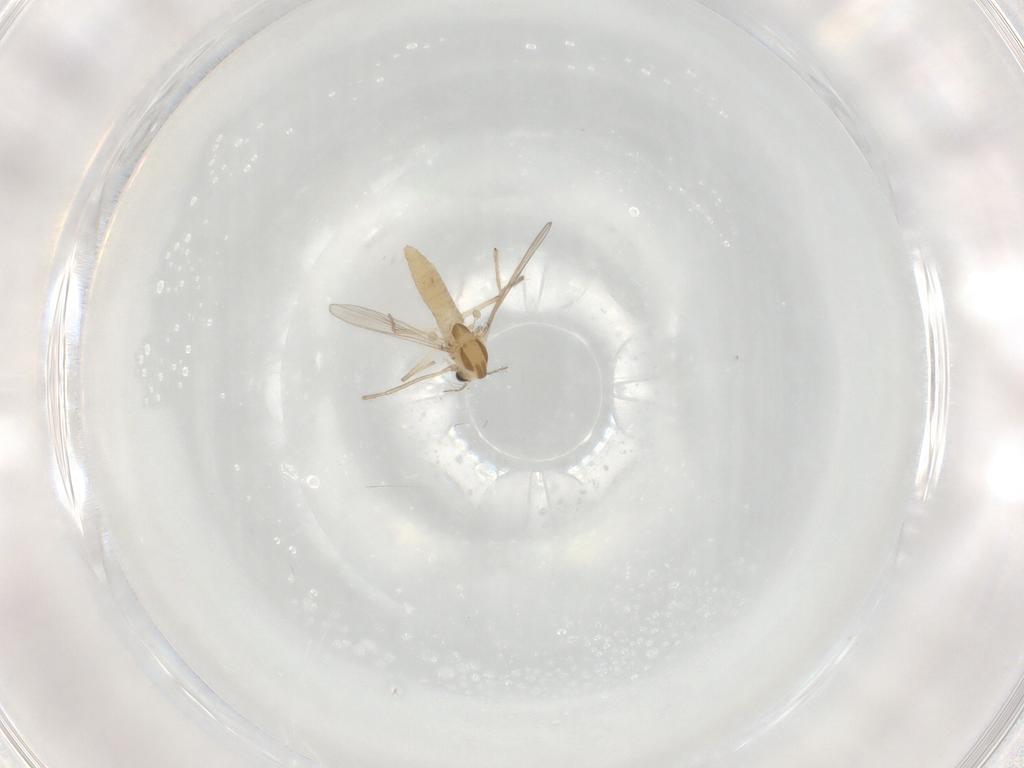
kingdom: Animalia
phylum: Arthropoda
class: Insecta
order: Diptera
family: Chironomidae
